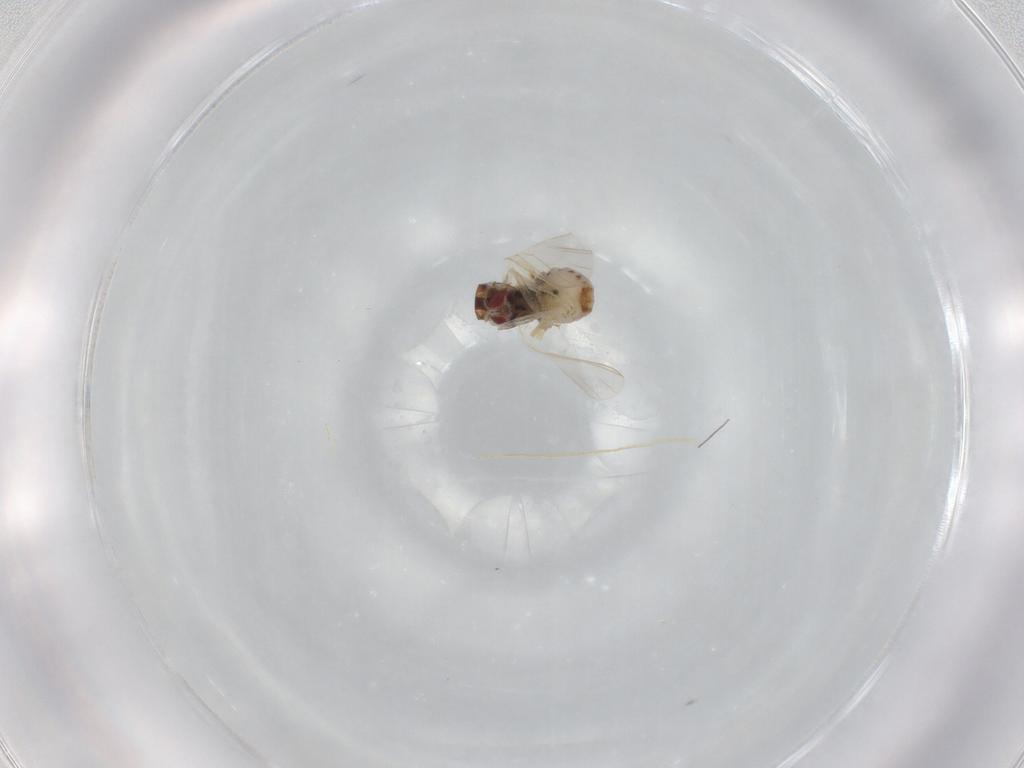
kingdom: Animalia
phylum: Arthropoda
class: Insecta
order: Diptera
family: Bombyliidae
